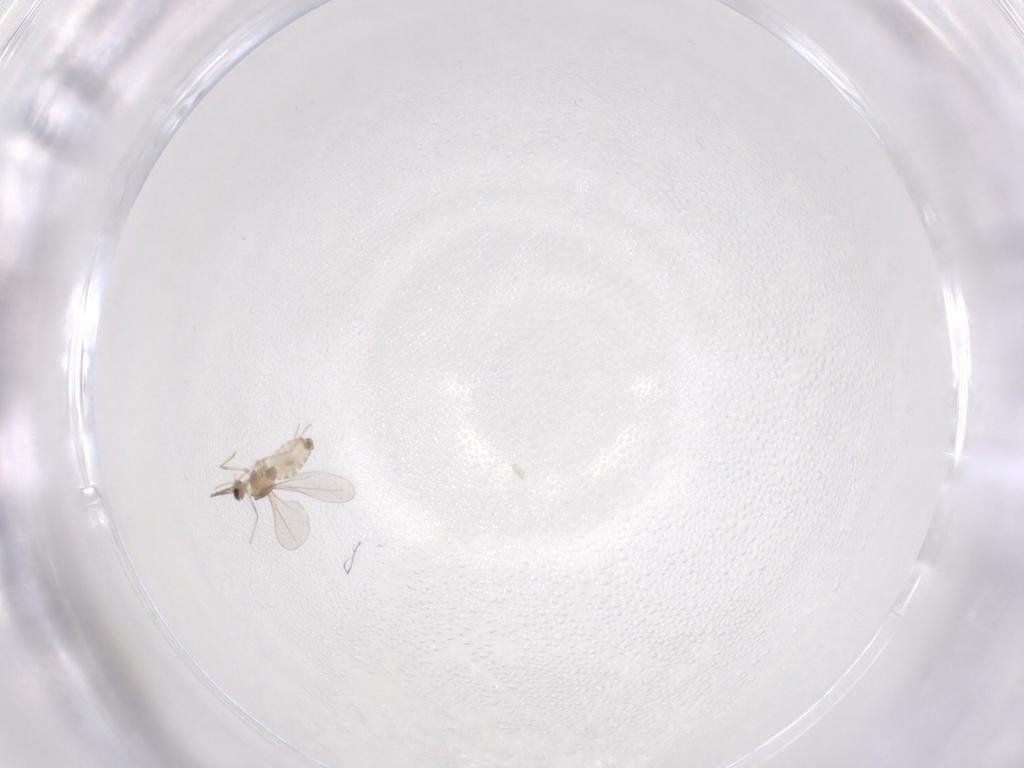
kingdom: Animalia
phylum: Arthropoda
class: Insecta
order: Diptera
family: Cecidomyiidae
